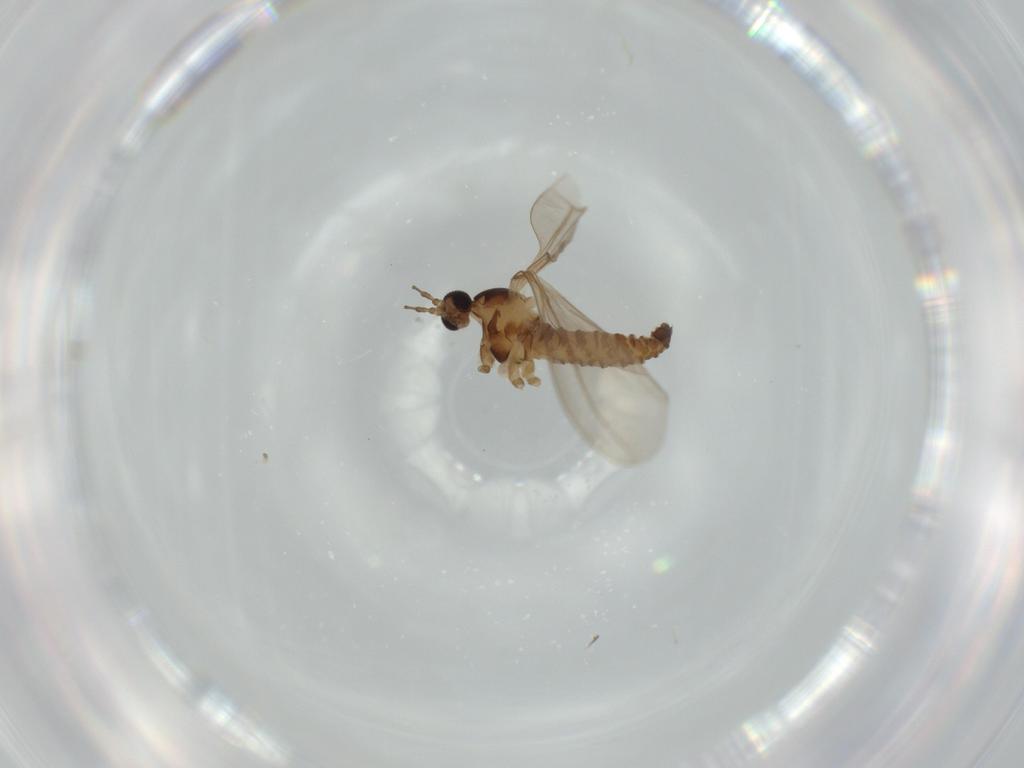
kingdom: Animalia
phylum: Arthropoda
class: Insecta
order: Diptera
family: Cecidomyiidae
